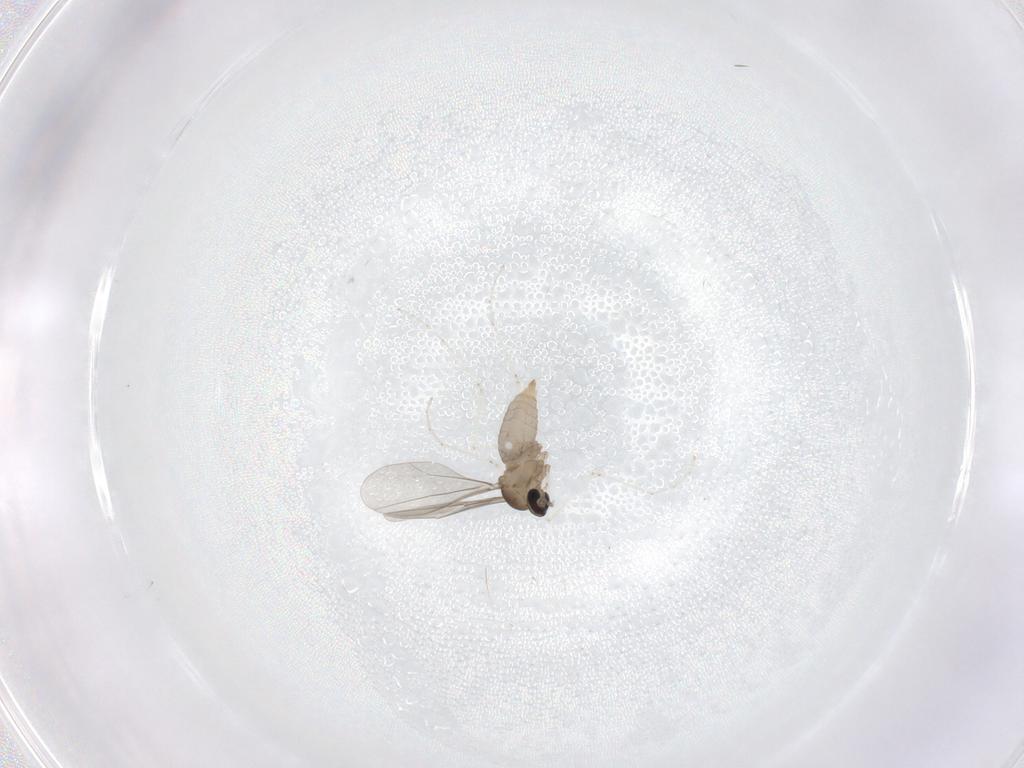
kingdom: Animalia
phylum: Arthropoda
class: Insecta
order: Diptera
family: Cecidomyiidae
